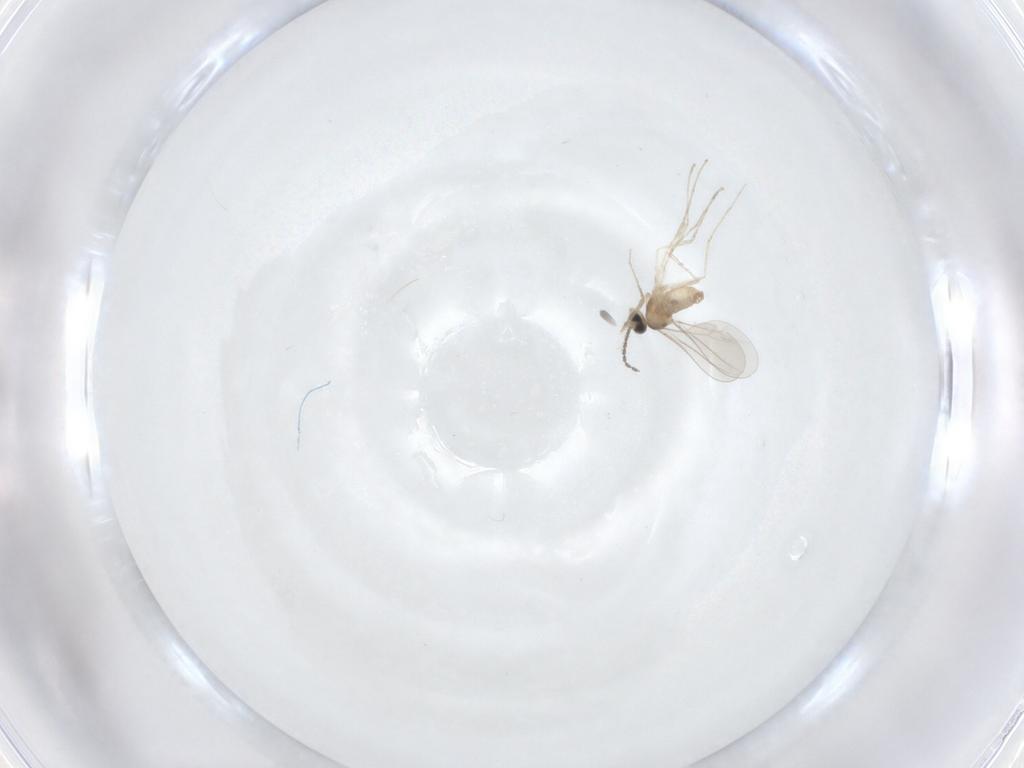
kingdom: Animalia
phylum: Arthropoda
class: Insecta
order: Diptera
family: Cecidomyiidae
